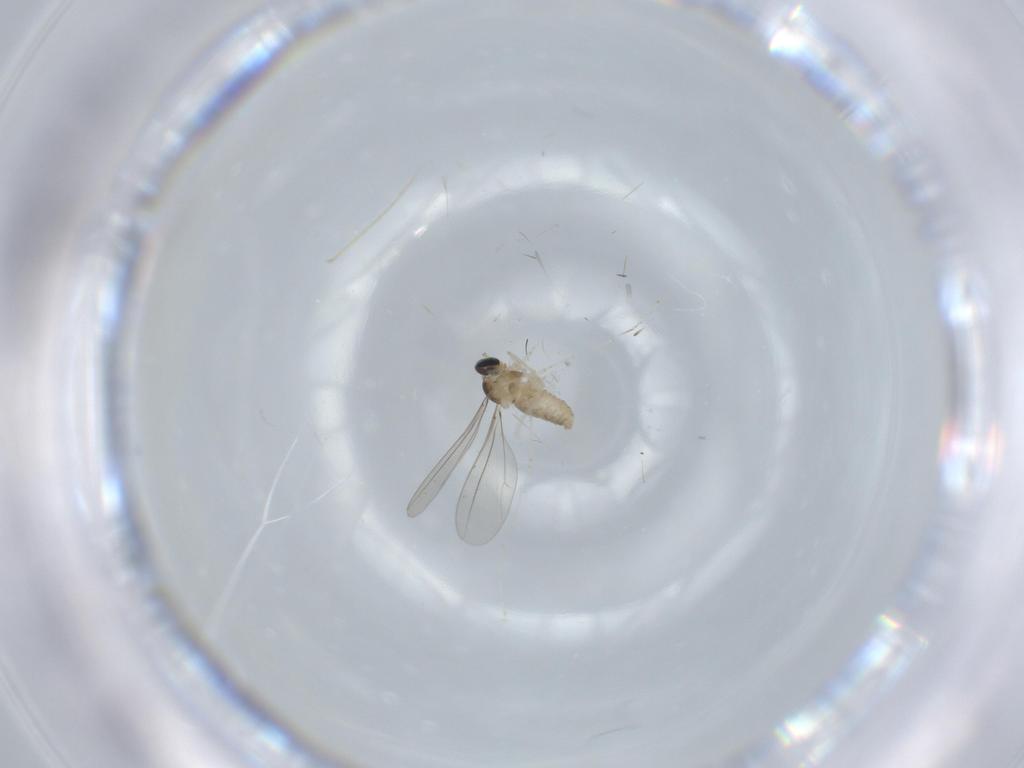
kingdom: Animalia
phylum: Arthropoda
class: Insecta
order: Diptera
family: Cecidomyiidae
